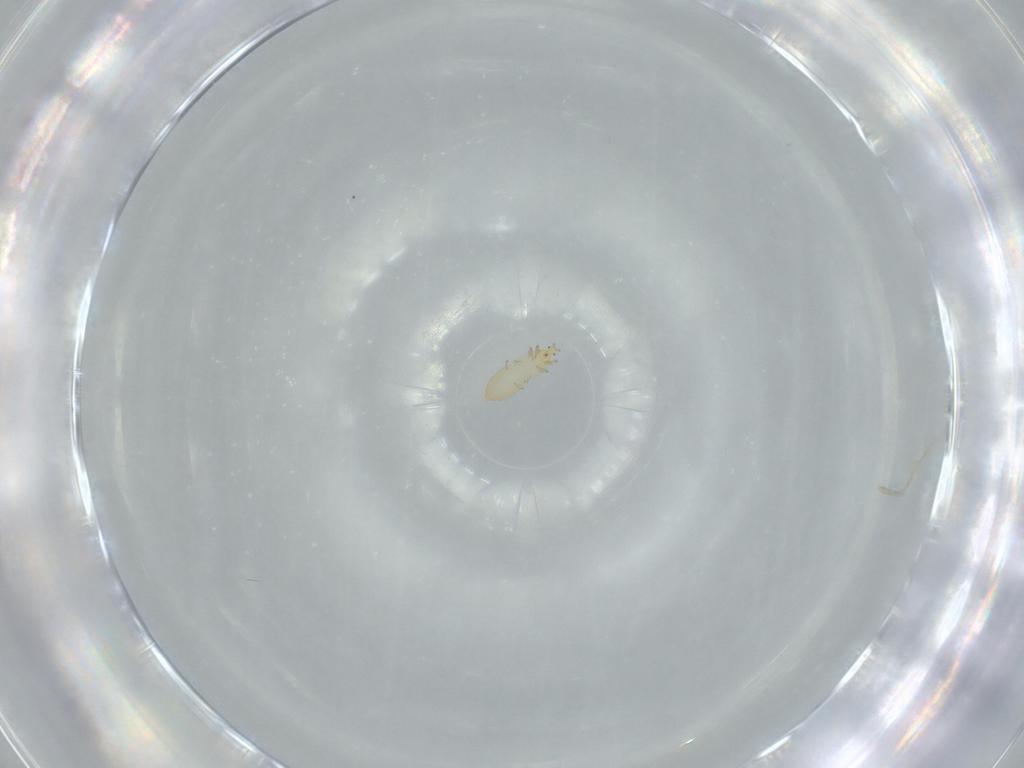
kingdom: Animalia
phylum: Arthropoda
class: Insecta
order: Thysanoptera
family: Thripidae
